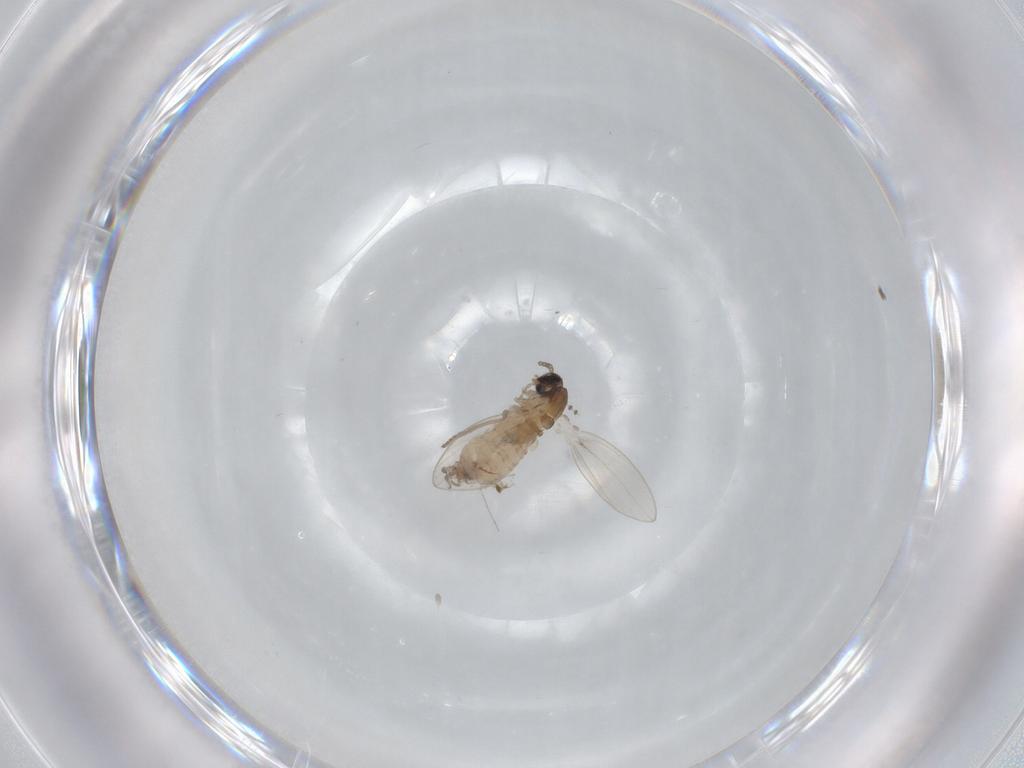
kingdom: Animalia
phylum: Arthropoda
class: Insecta
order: Diptera
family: Psychodidae
